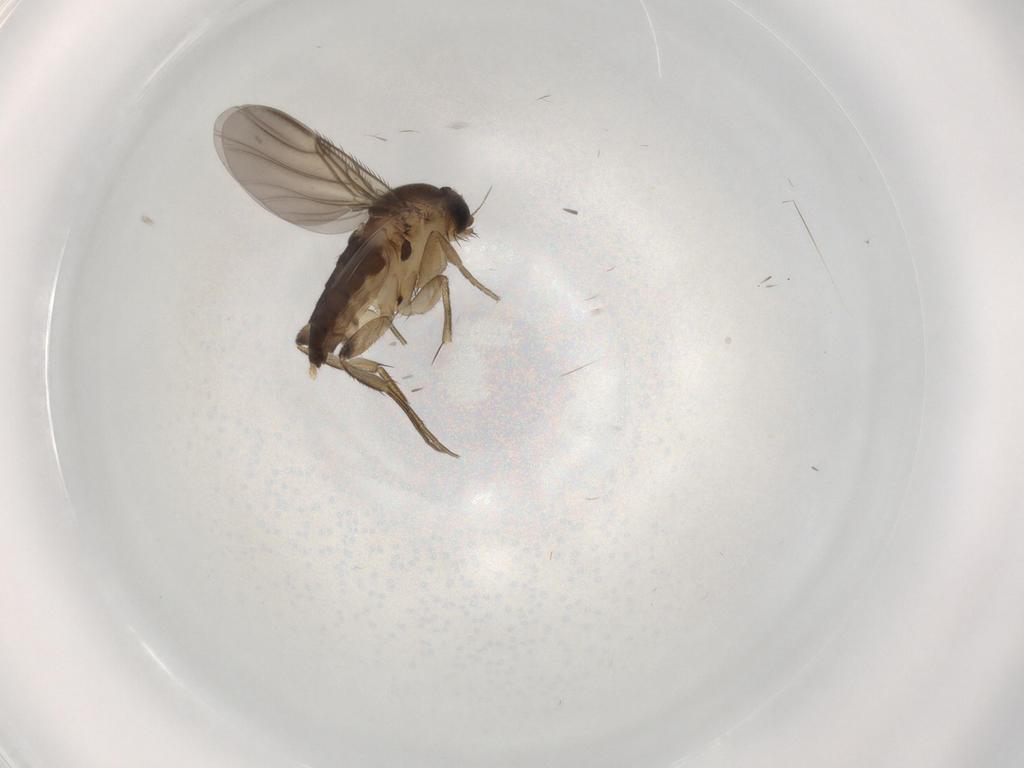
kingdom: Animalia
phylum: Arthropoda
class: Insecta
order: Diptera
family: Phoridae
